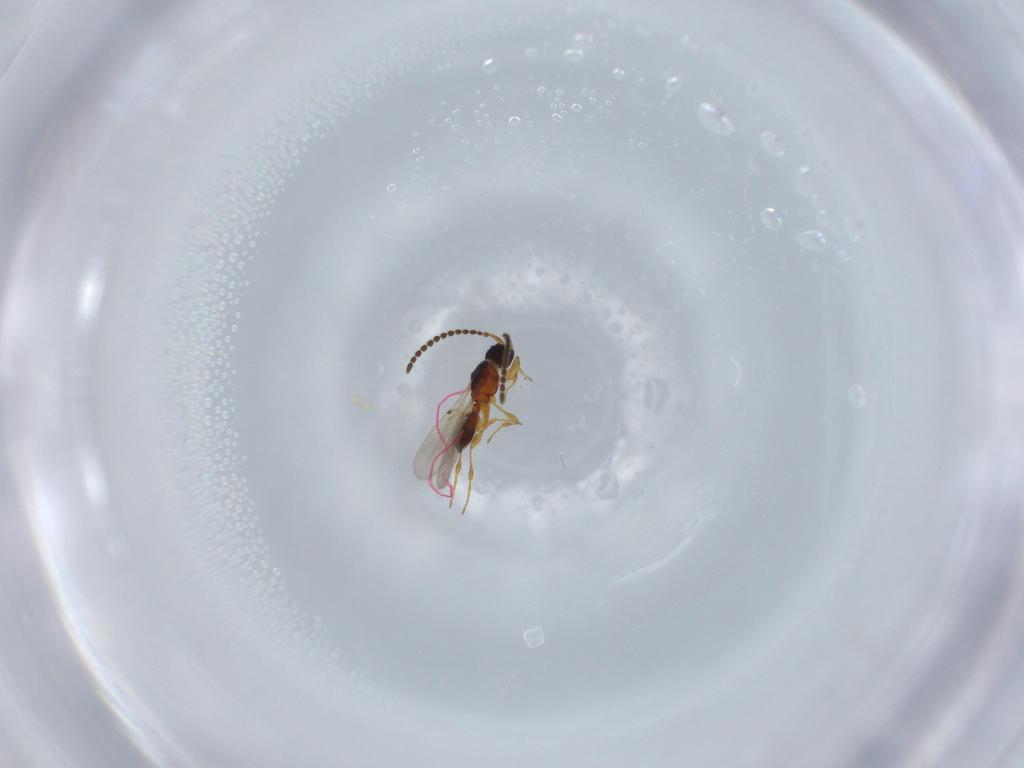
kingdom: Animalia
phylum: Arthropoda
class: Insecta
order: Hymenoptera
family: Diapriidae
